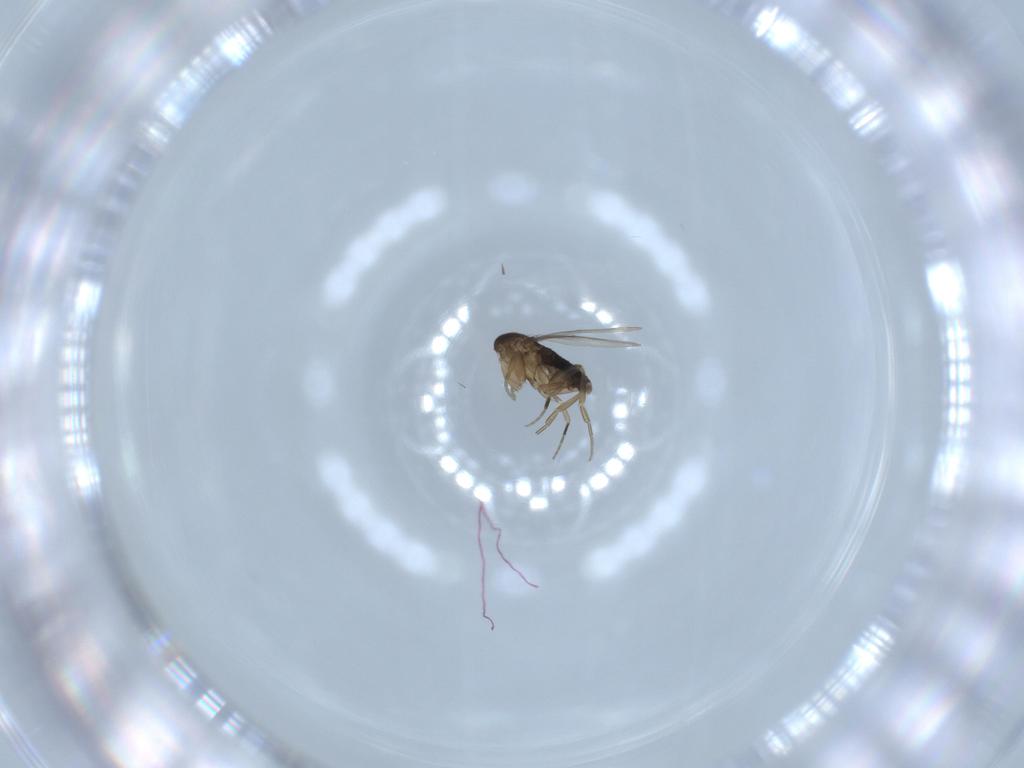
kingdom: Animalia
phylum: Arthropoda
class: Insecta
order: Diptera
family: Phoridae
